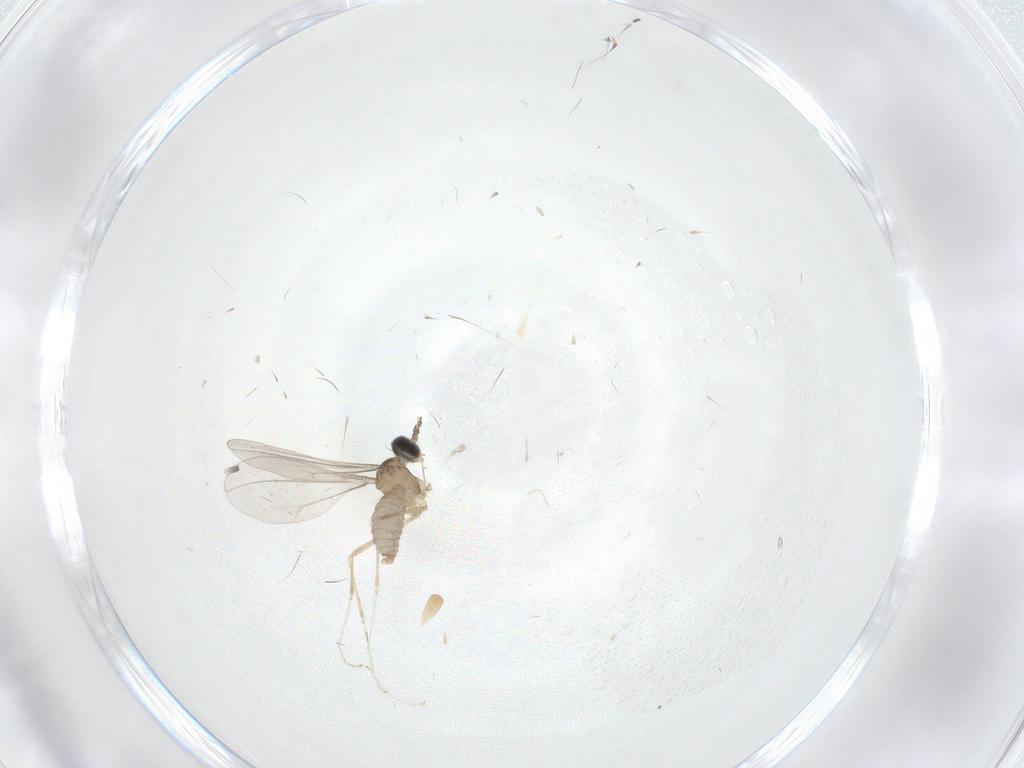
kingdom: Animalia
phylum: Arthropoda
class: Insecta
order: Diptera
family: Cecidomyiidae
